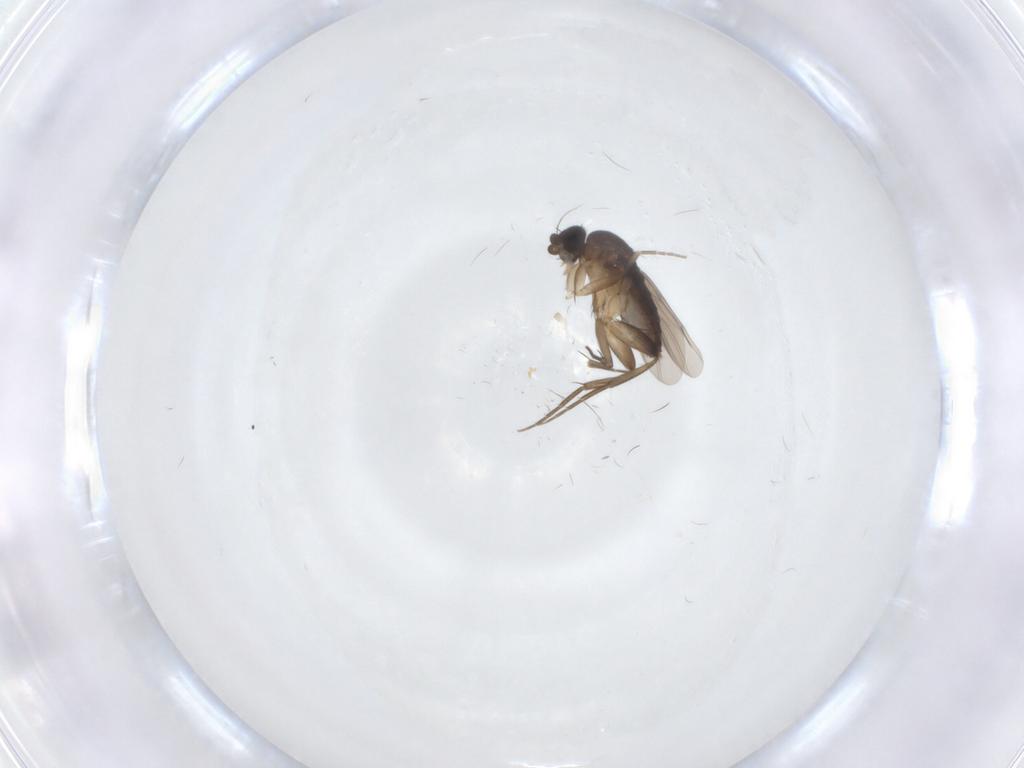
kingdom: Animalia
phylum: Arthropoda
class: Insecta
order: Diptera
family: Phoridae
